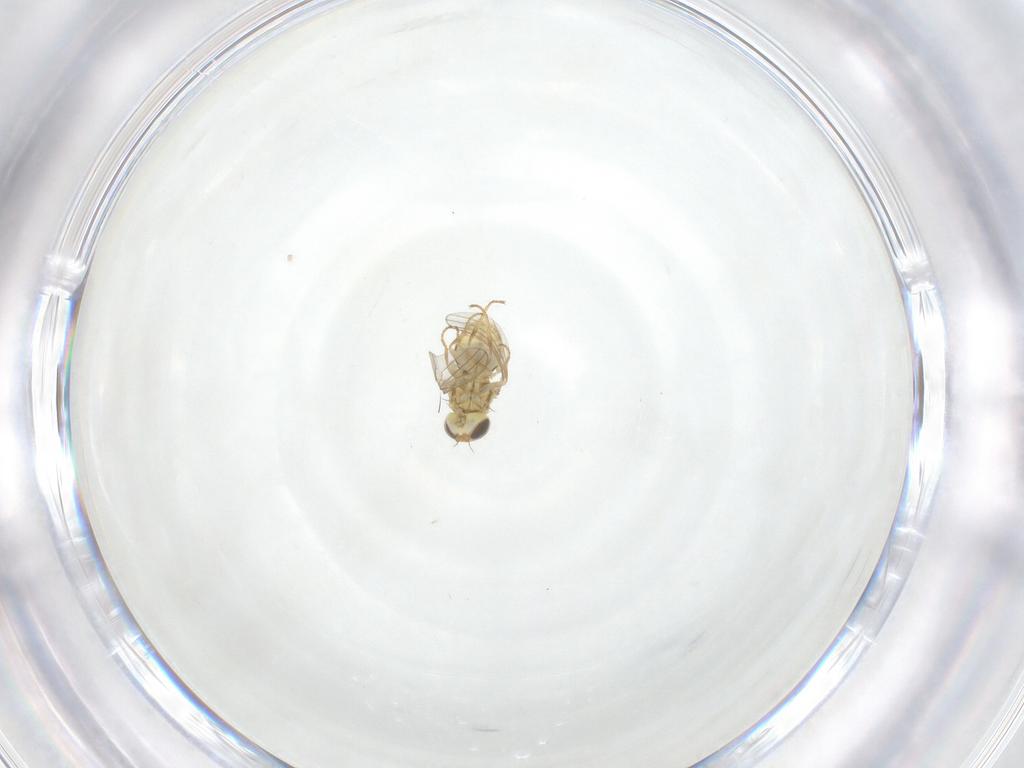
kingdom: Animalia
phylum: Arthropoda
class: Insecta
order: Diptera
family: Chyromyidae
